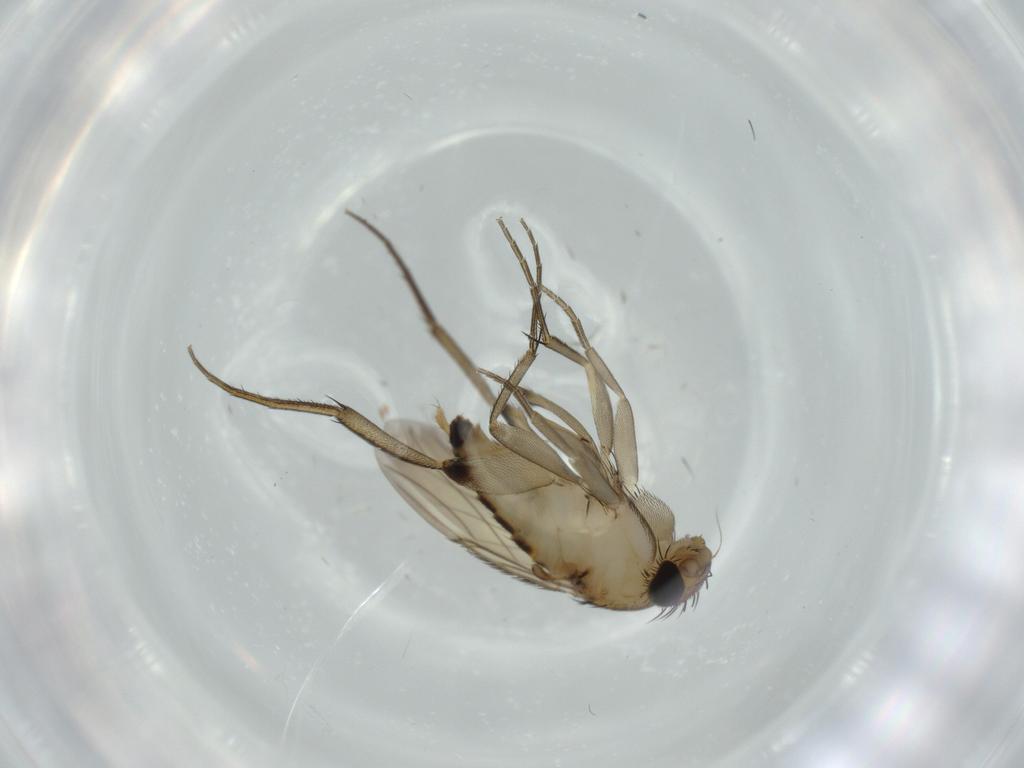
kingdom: Animalia
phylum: Arthropoda
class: Insecta
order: Diptera
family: Phoridae
